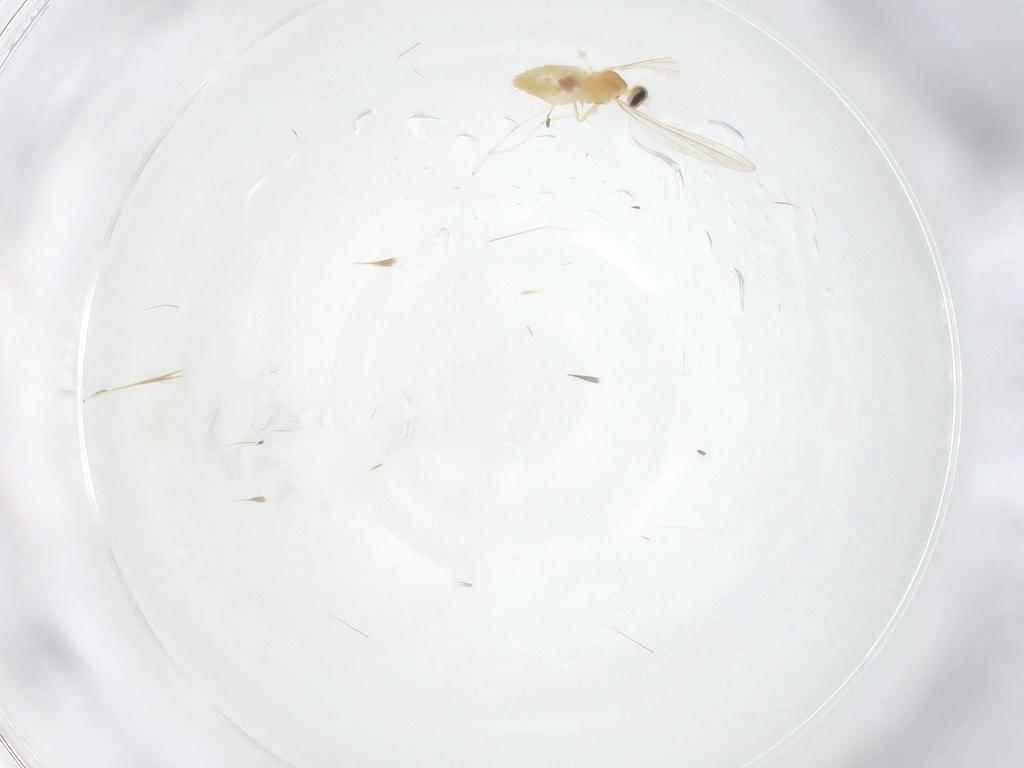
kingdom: Animalia
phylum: Arthropoda
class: Insecta
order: Diptera
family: Cecidomyiidae
